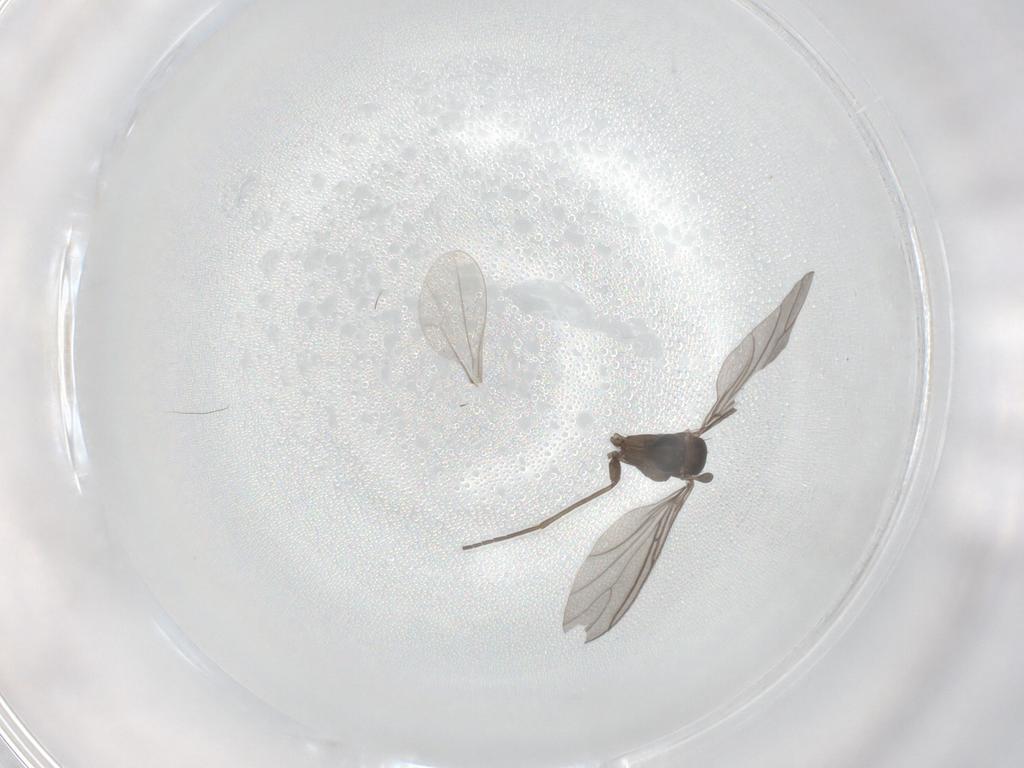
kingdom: Animalia
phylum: Arthropoda
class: Insecta
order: Diptera
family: Sciaridae
